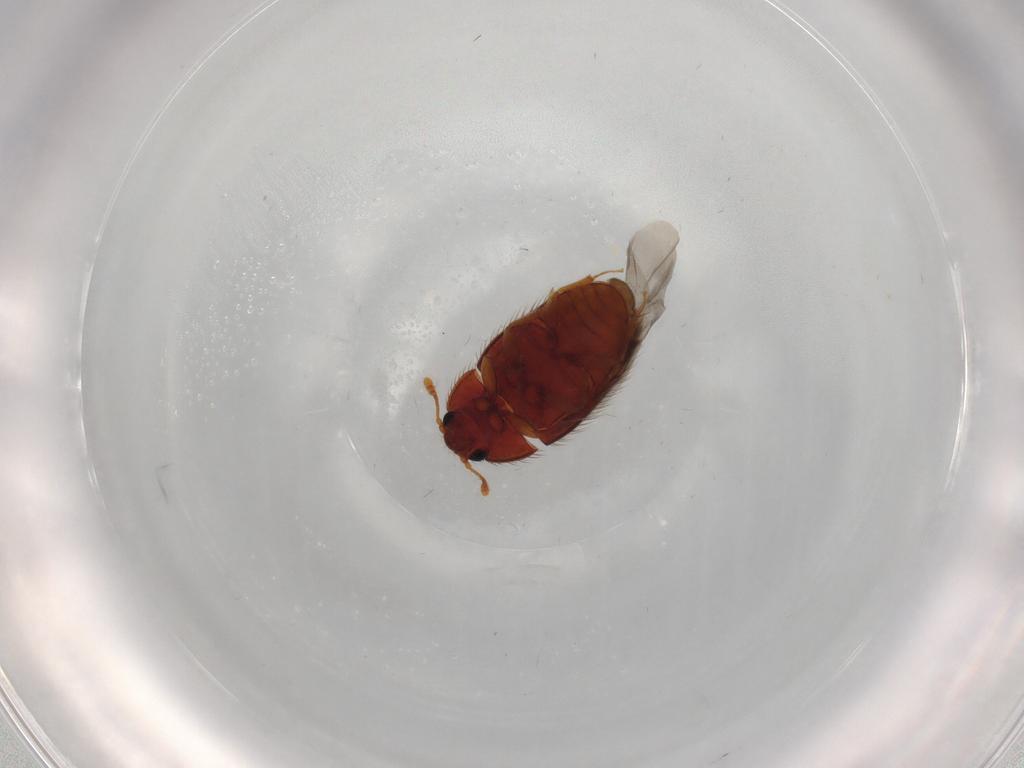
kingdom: Animalia
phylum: Arthropoda
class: Insecta
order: Coleoptera
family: Biphyllidae
